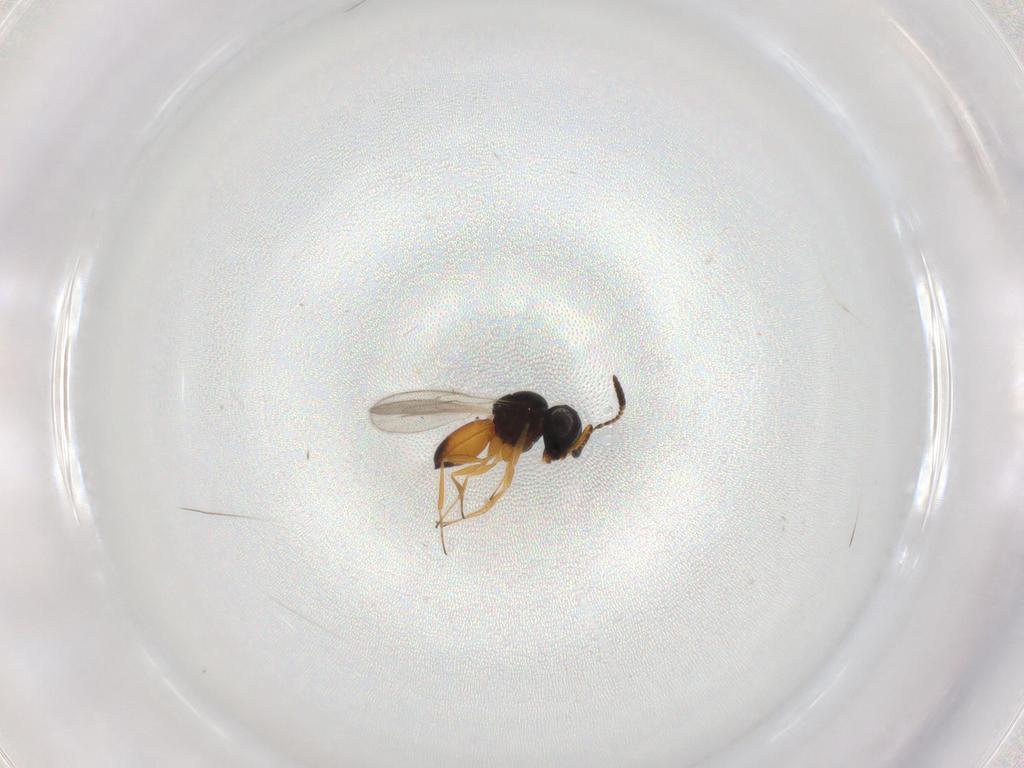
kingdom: Animalia
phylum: Arthropoda
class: Insecta
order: Hymenoptera
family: Scelionidae
